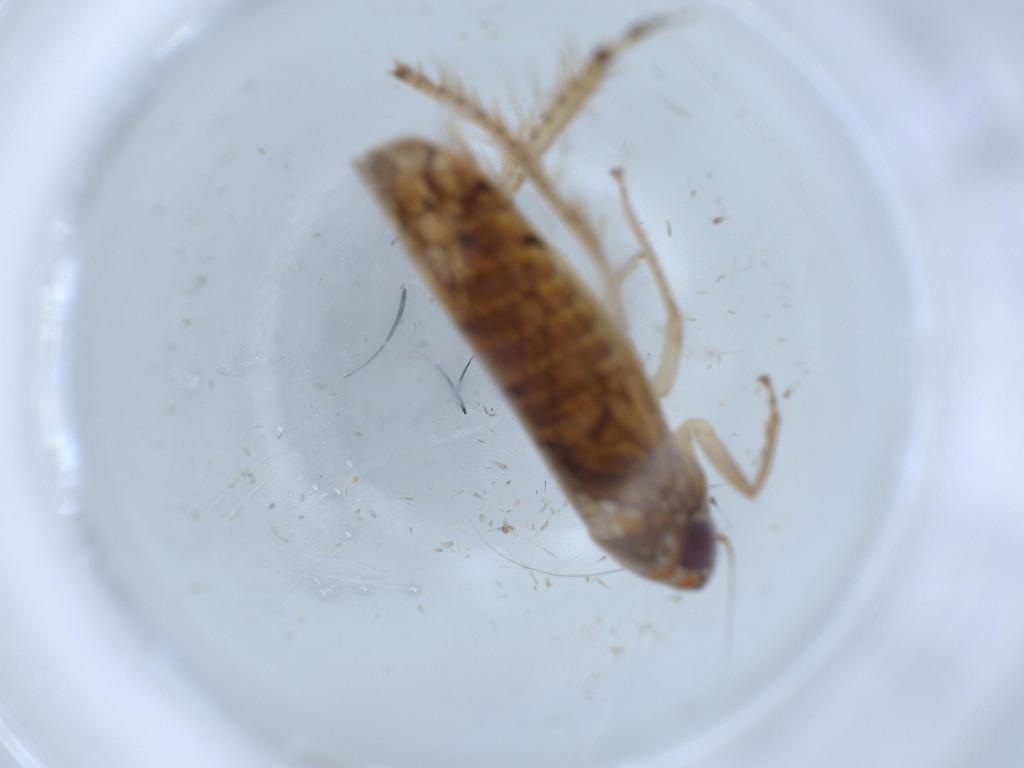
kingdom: Animalia
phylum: Arthropoda
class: Insecta
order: Hemiptera
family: Cicadellidae
